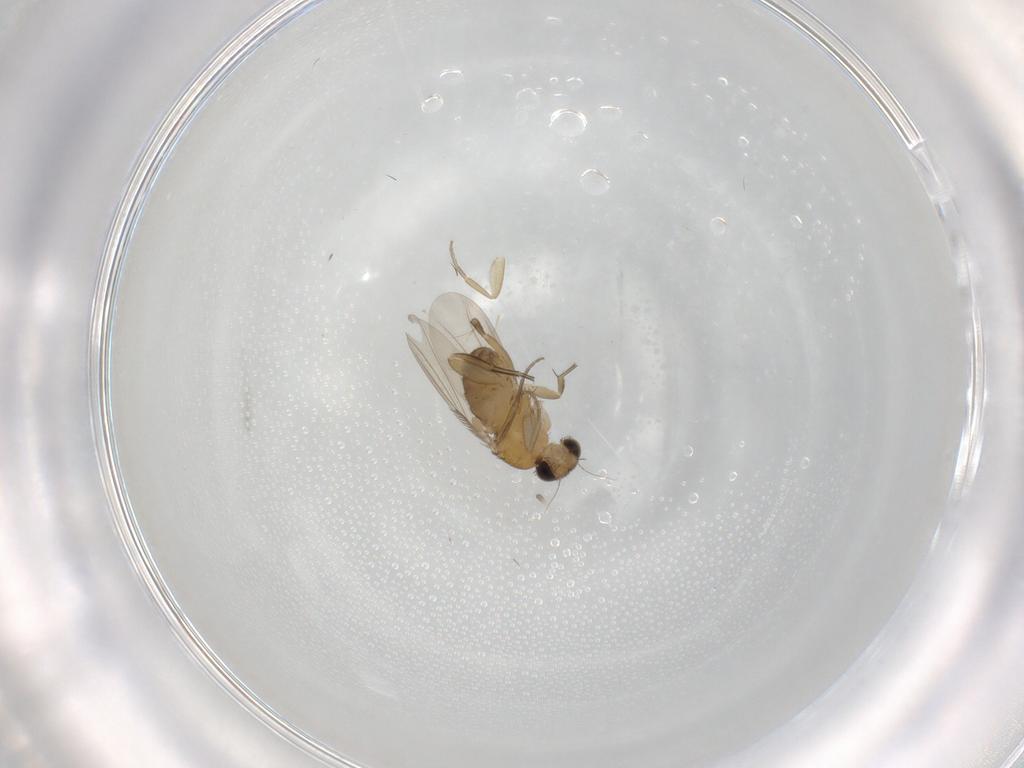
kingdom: Animalia
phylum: Arthropoda
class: Insecta
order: Diptera
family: Phoridae
